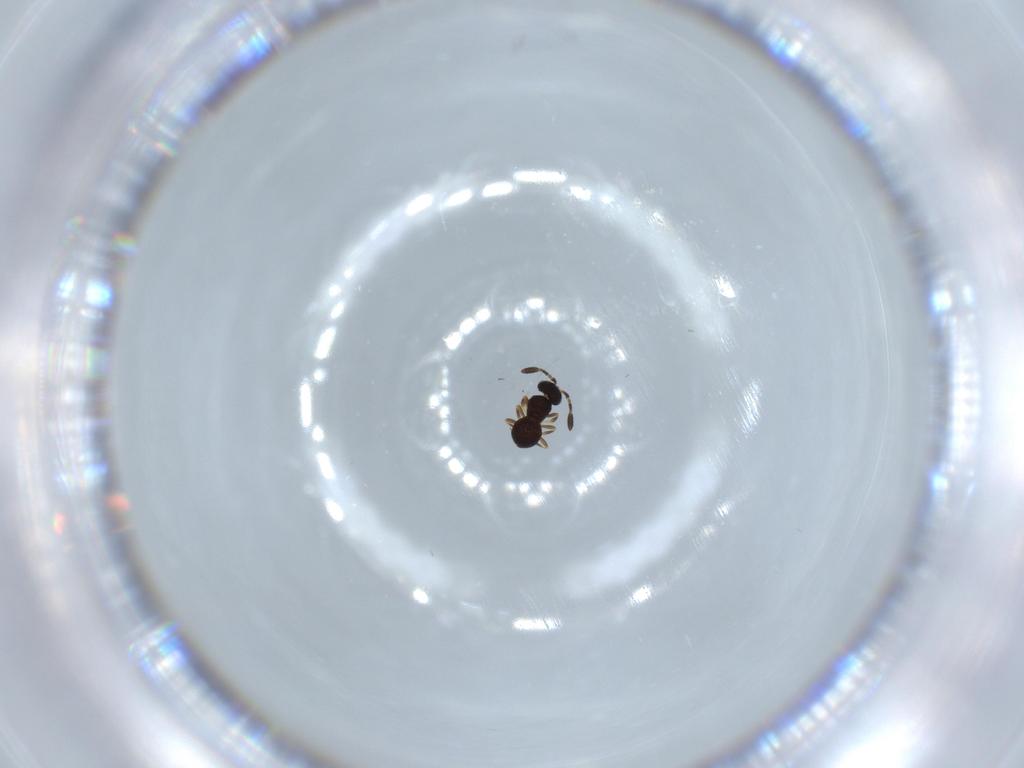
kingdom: Animalia
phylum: Arthropoda
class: Insecta
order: Hymenoptera
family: Scelionidae
